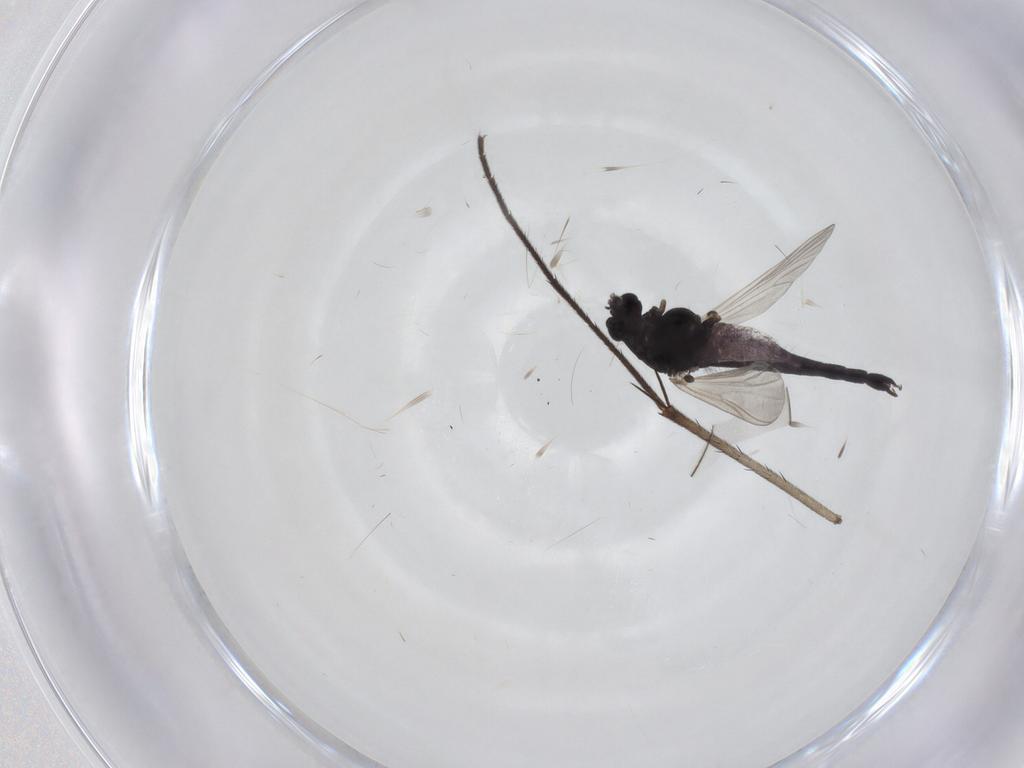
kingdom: Animalia
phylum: Arthropoda
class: Insecta
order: Diptera
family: Chironomidae
